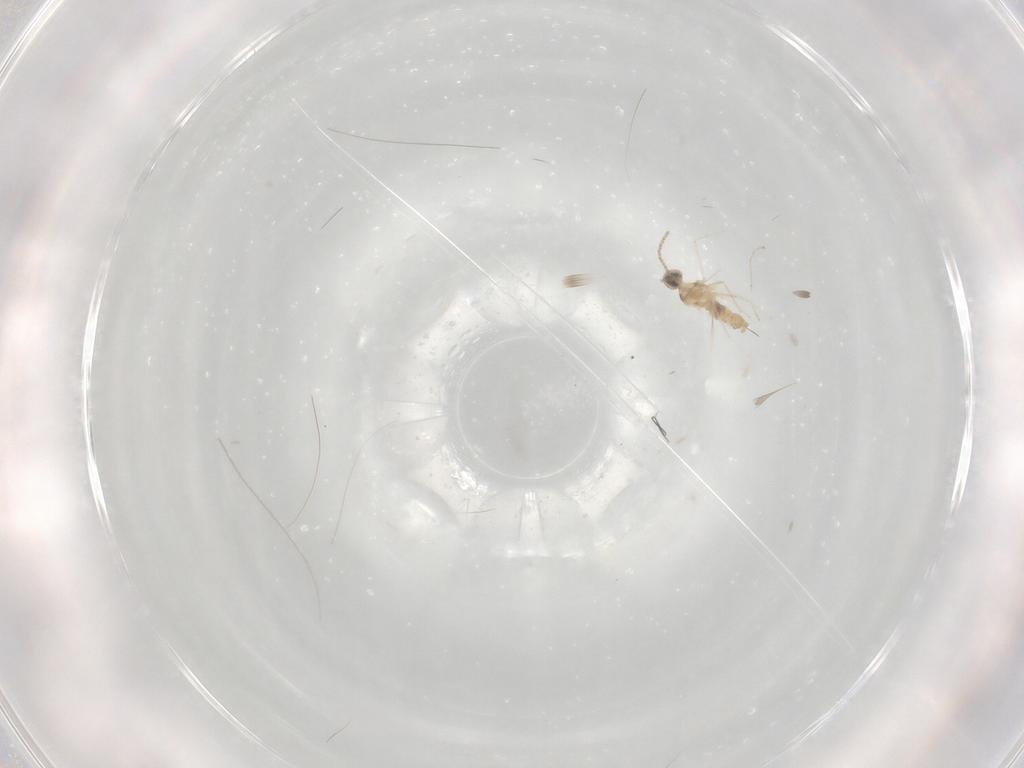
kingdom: Animalia
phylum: Arthropoda
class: Insecta
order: Diptera
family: Cecidomyiidae
